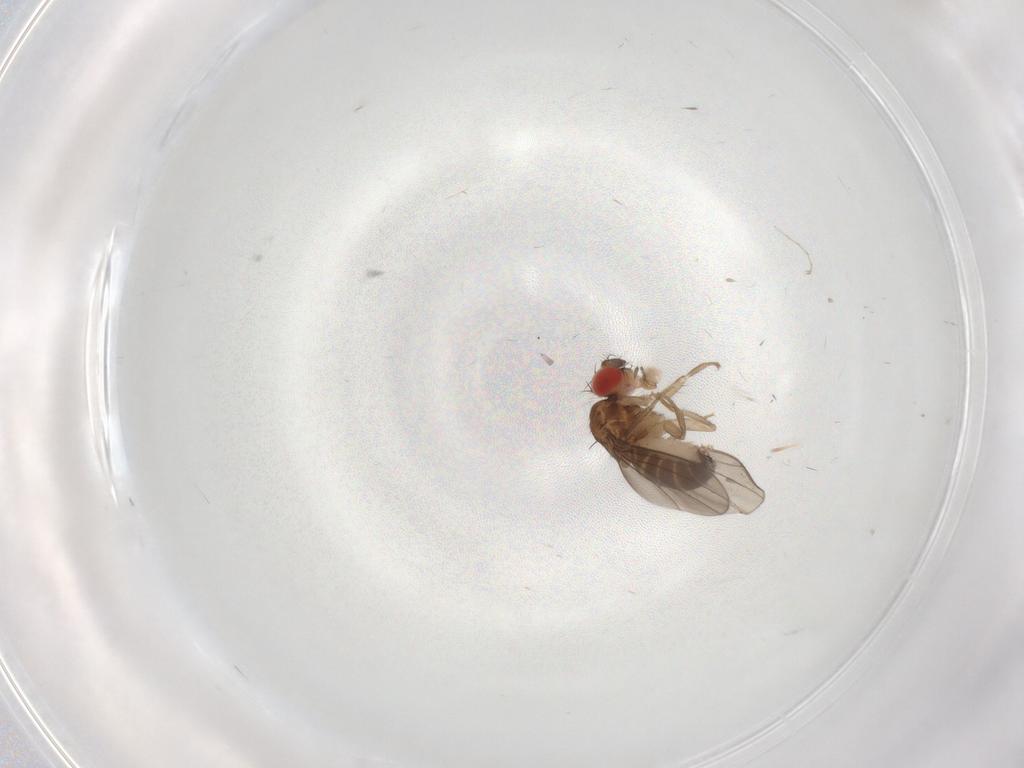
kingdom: Animalia
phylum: Arthropoda
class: Insecta
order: Diptera
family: Drosophilidae
